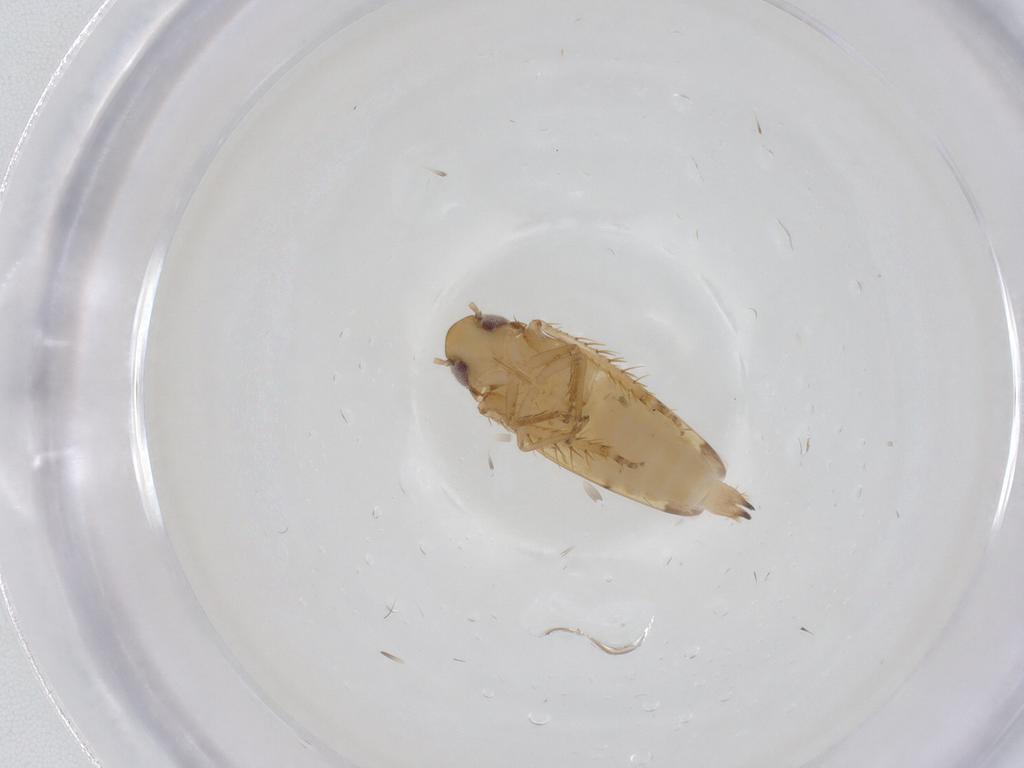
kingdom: Animalia
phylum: Arthropoda
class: Insecta
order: Hemiptera
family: Cicadellidae
